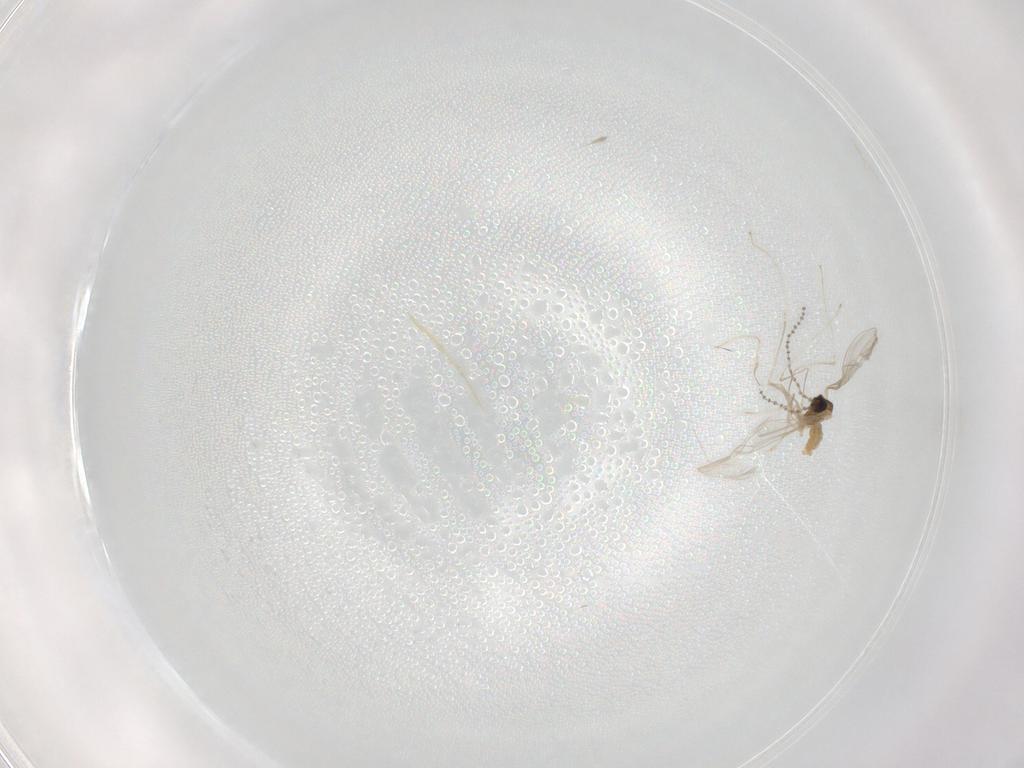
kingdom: Animalia
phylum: Arthropoda
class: Insecta
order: Diptera
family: Cecidomyiidae
